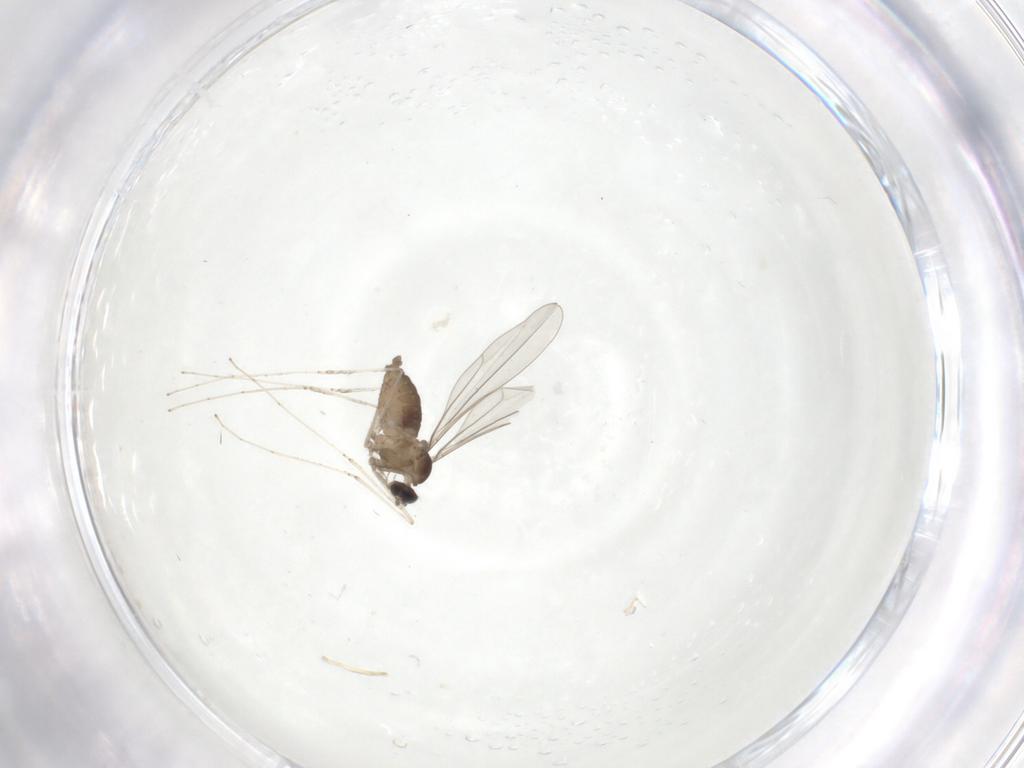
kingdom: Animalia
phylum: Arthropoda
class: Insecta
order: Diptera
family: Cecidomyiidae
